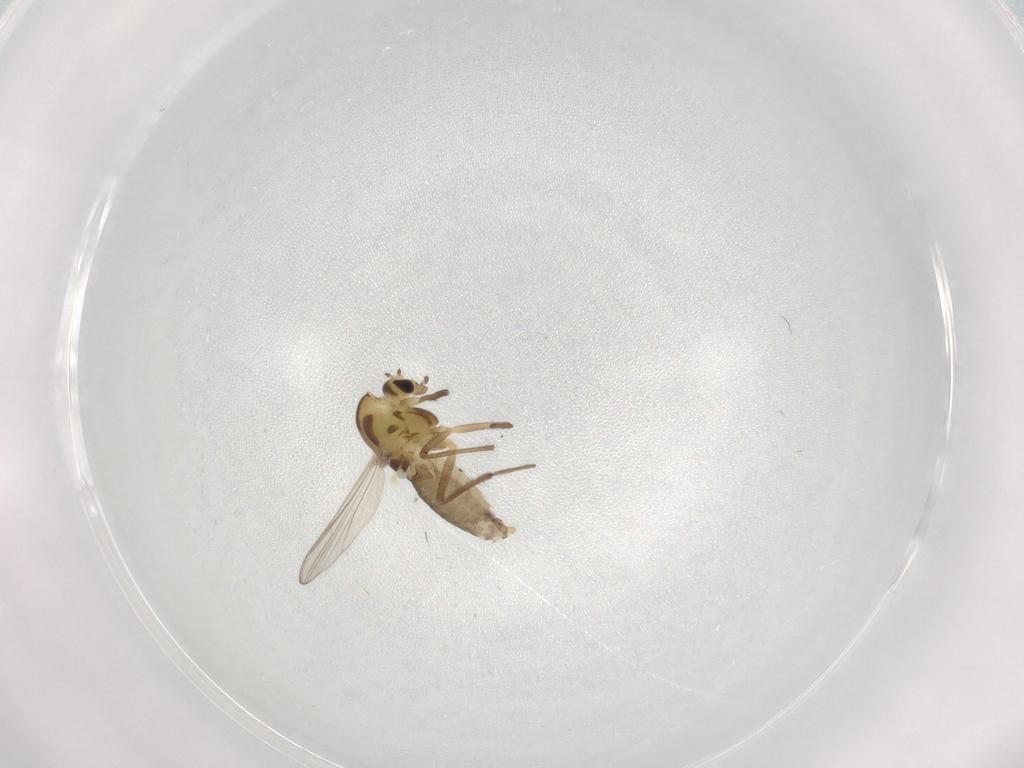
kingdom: Animalia
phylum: Arthropoda
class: Insecta
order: Diptera
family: Chironomidae
